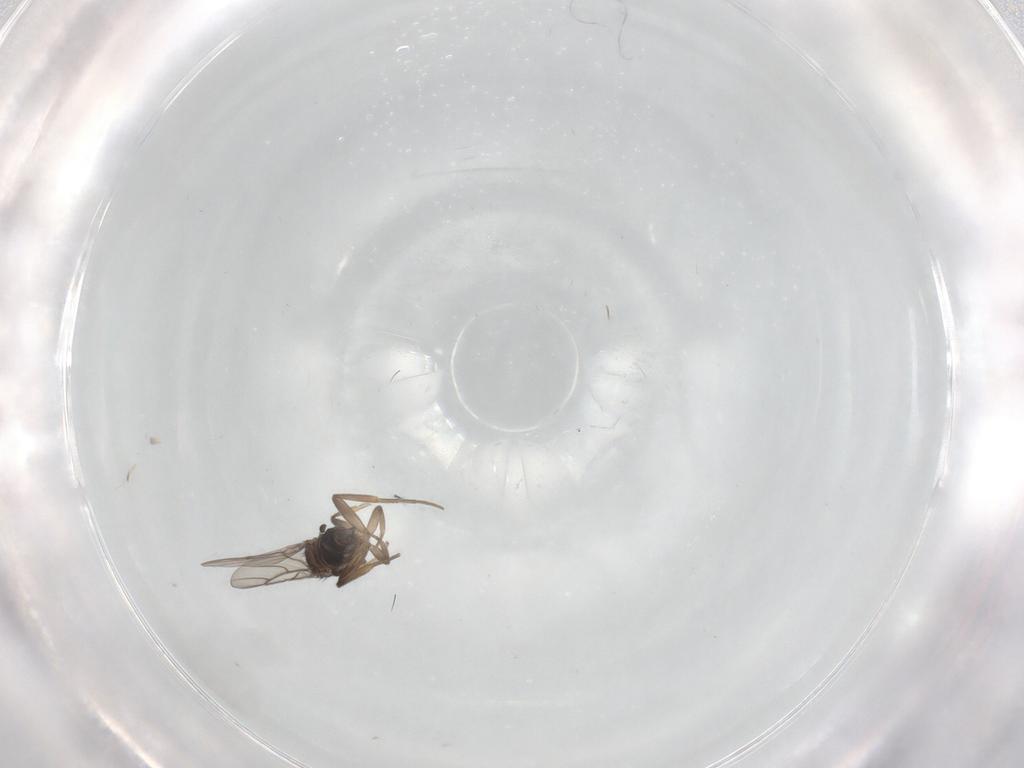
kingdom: Animalia
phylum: Arthropoda
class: Insecta
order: Diptera
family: Phoridae
